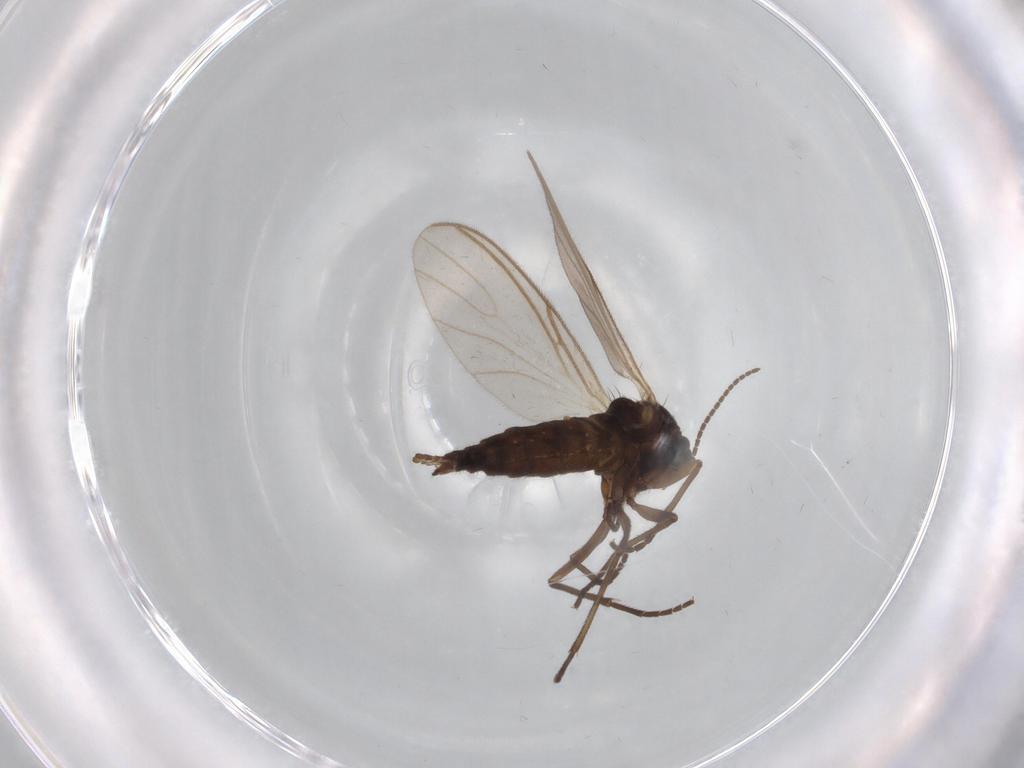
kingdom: Animalia
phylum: Arthropoda
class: Insecta
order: Diptera
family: Sciaridae
